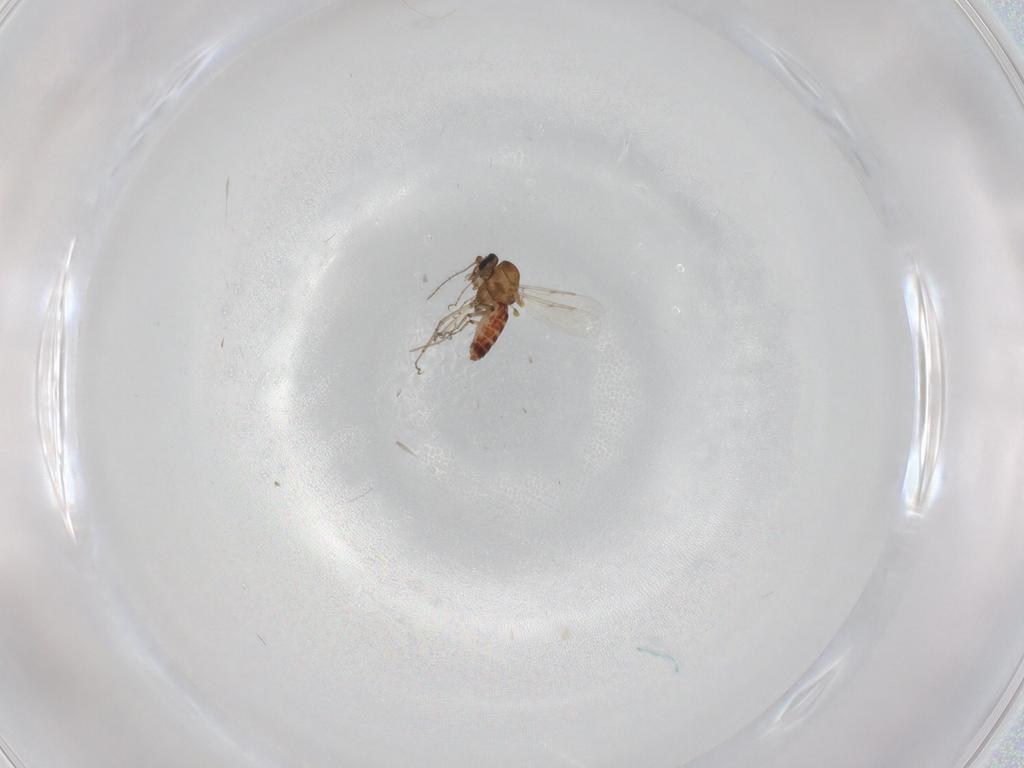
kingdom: Animalia
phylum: Arthropoda
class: Insecta
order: Diptera
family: Ceratopogonidae
